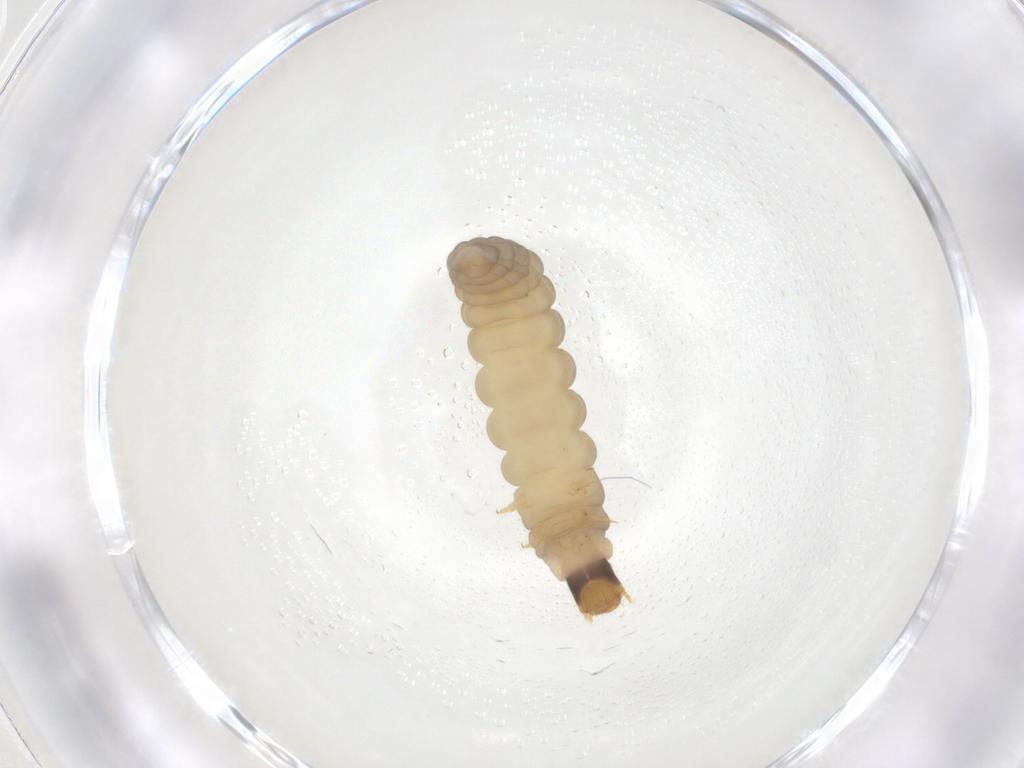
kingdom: Animalia
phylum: Arthropoda
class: Insecta
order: Coleoptera
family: Cantharidae
